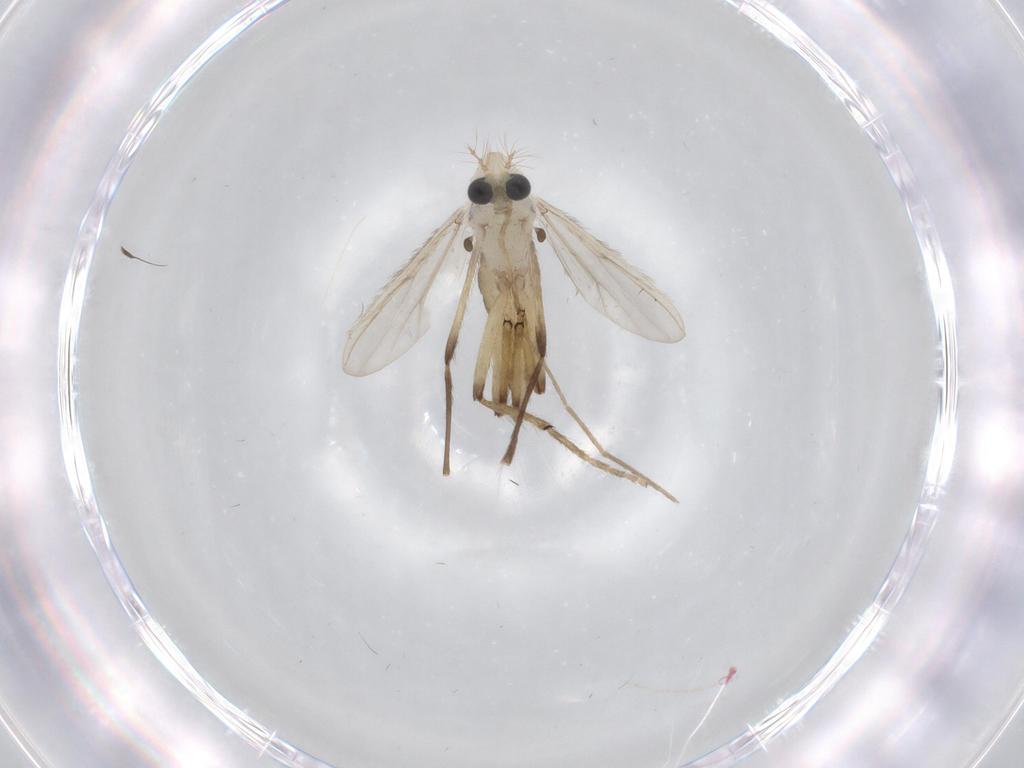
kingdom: Animalia
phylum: Arthropoda
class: Insecta
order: Diptera
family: Chironomidae
